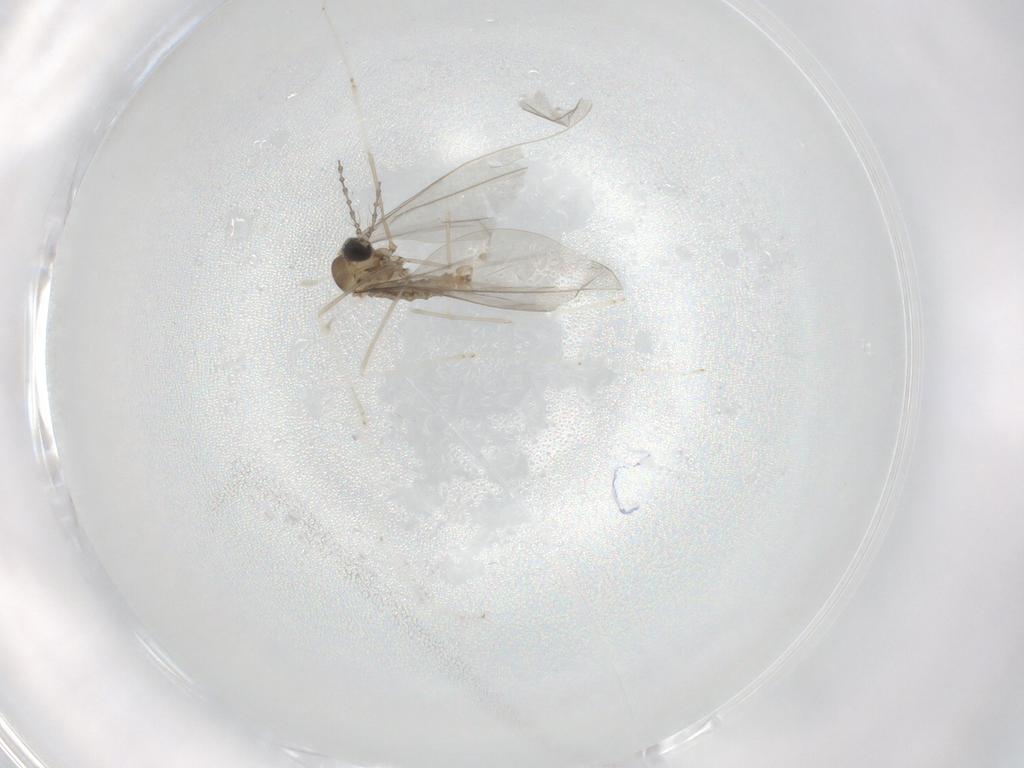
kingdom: Animalia
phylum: Arthropoda
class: Insecta
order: Diptera
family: Cecidomyiidae
